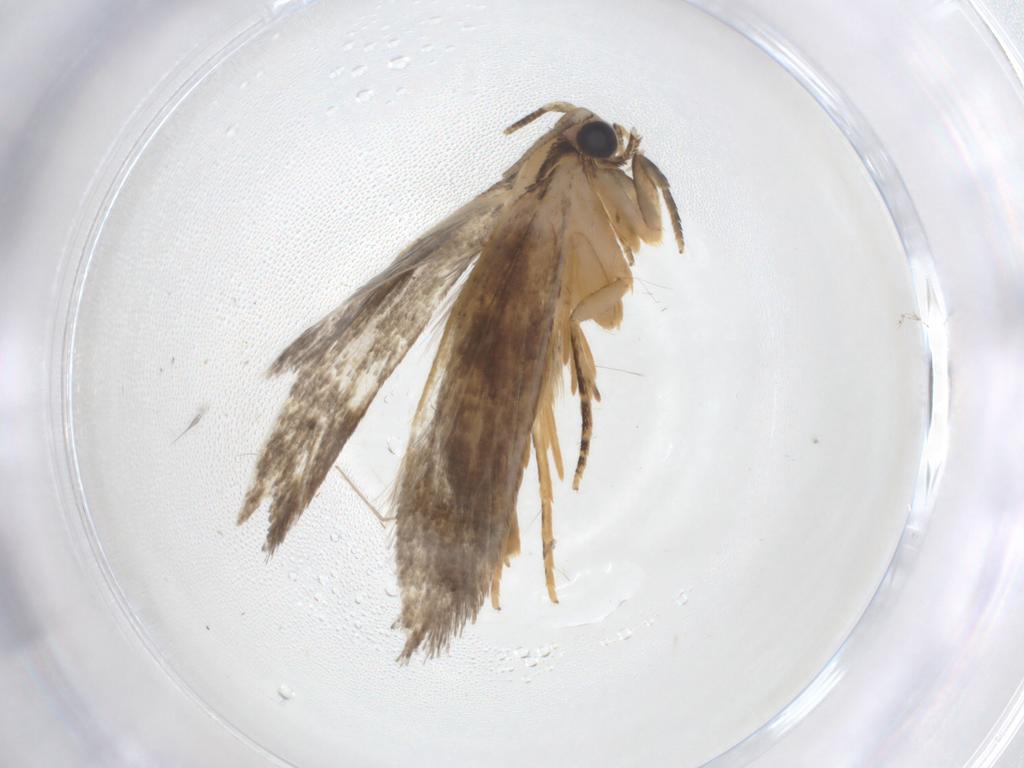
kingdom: Animalia
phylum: Arthropoda
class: Insecta
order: Lepidoptera
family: Tineidae
